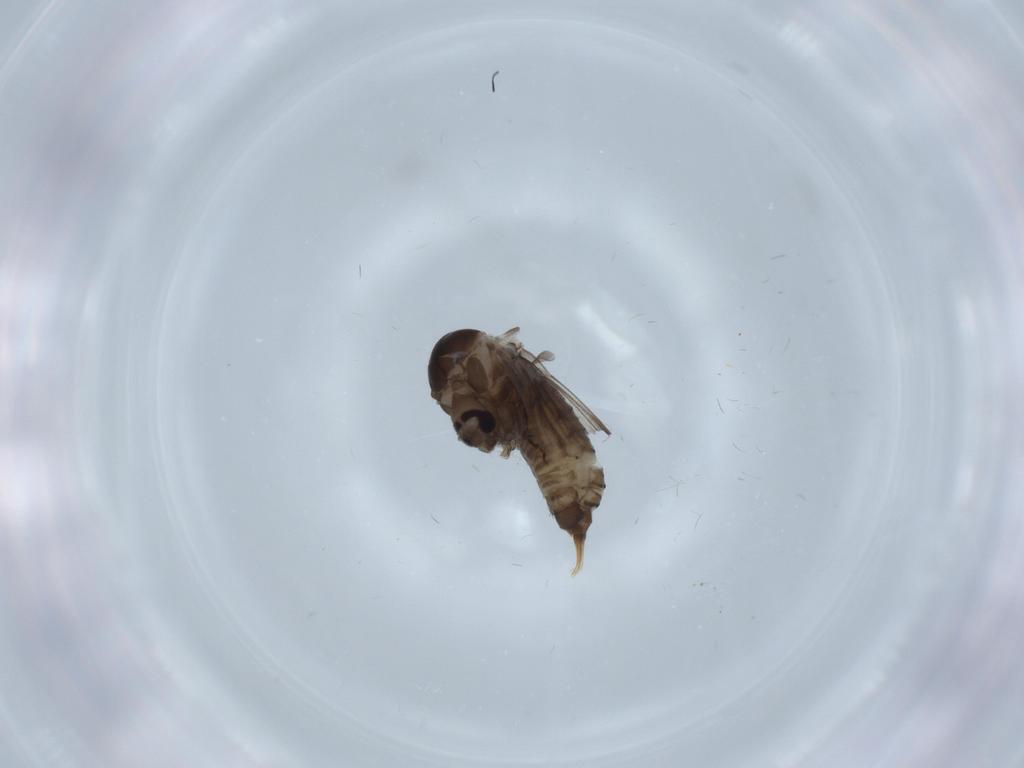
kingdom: Animalia
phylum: Arthropoda
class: Insecta
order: Diptera
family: Psychodidae
